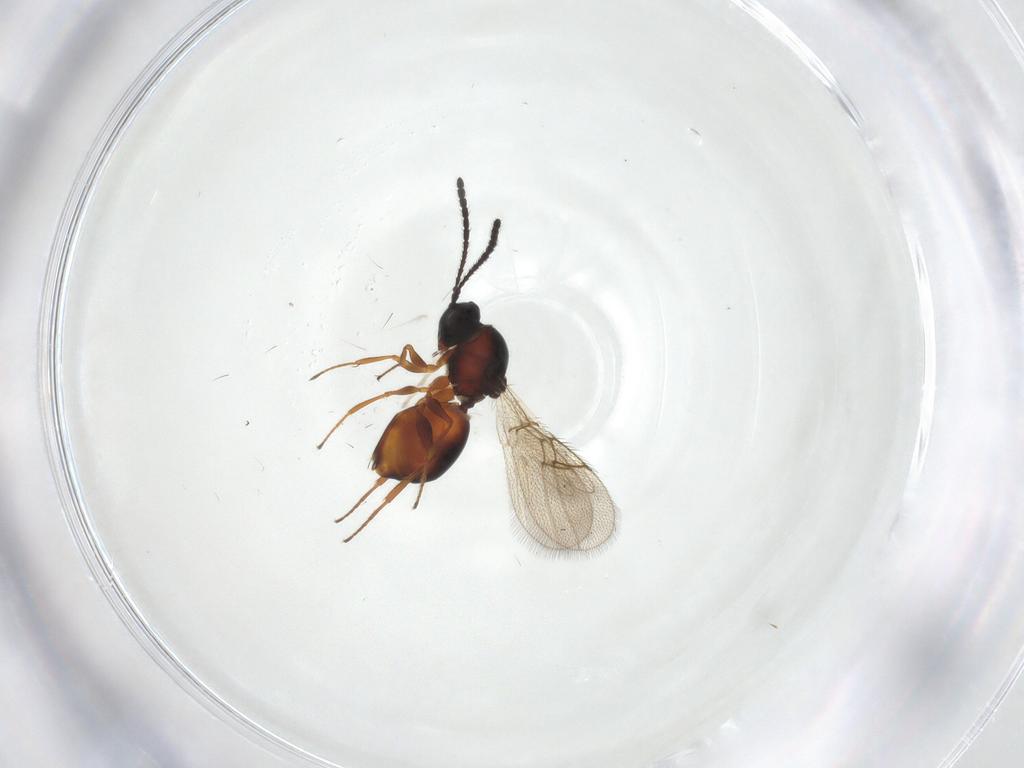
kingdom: Animalia
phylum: Arthropoda
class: Insecta
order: Hymenoptera
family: Figitidae
